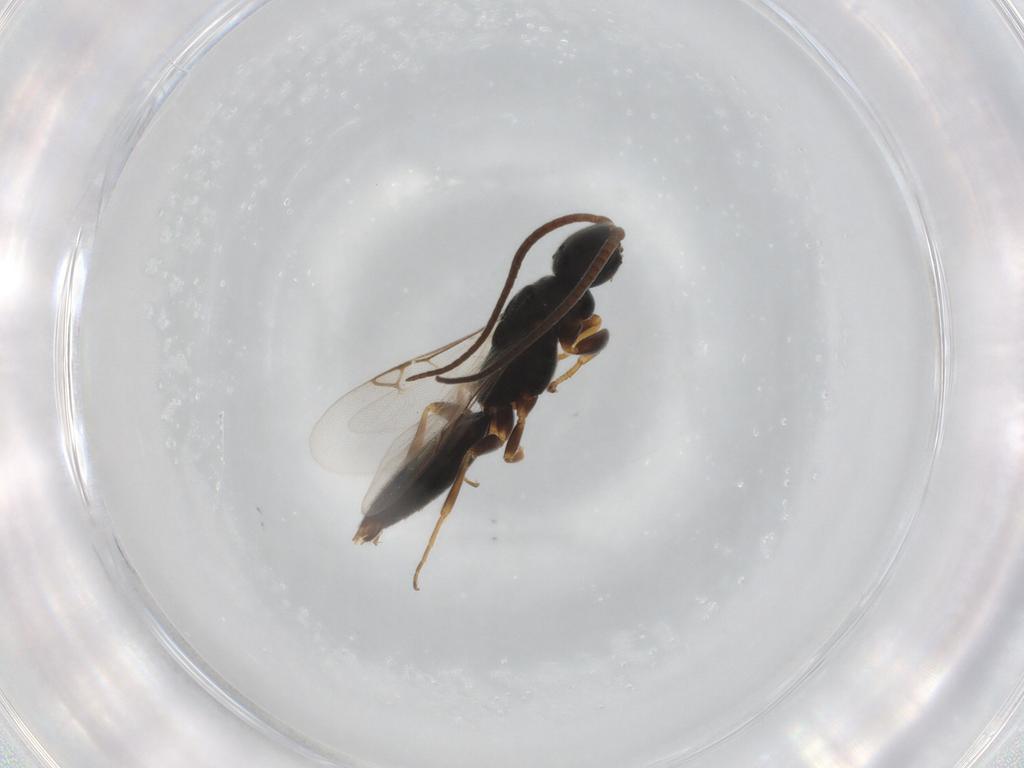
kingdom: Animalia
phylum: Arthropoda
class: Insecta
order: Hymenoptera
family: Sclerogibbidae
